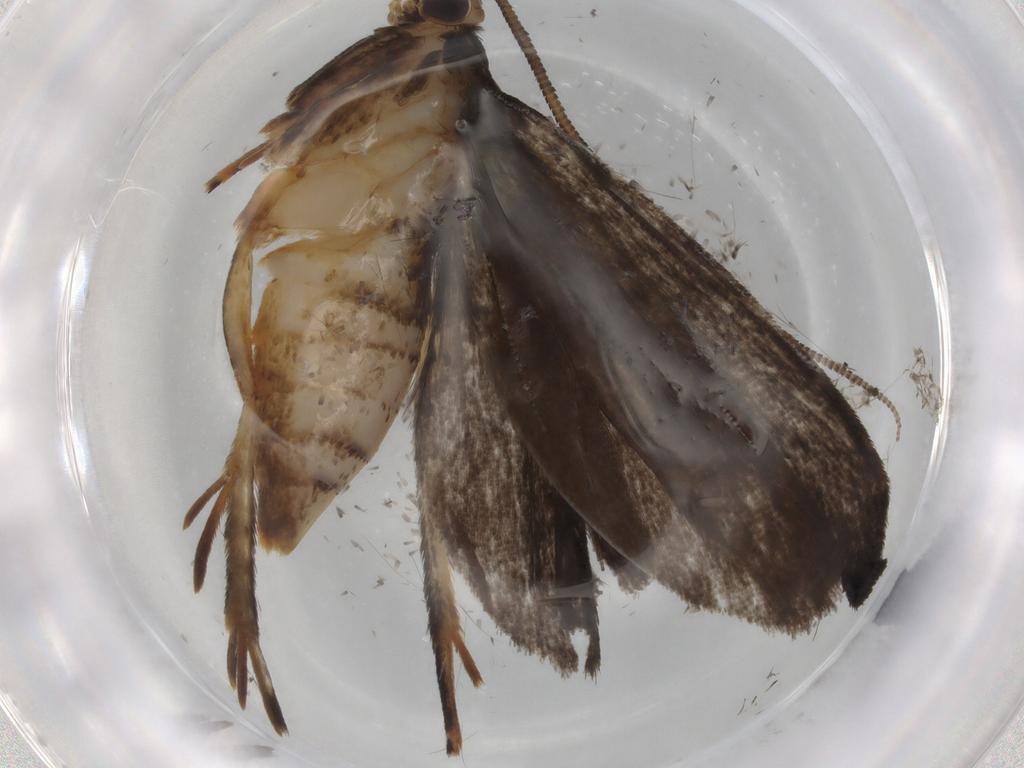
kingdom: Animalia
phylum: Arthropoda
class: Insecta
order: Lepidoptera
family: Tineidae
